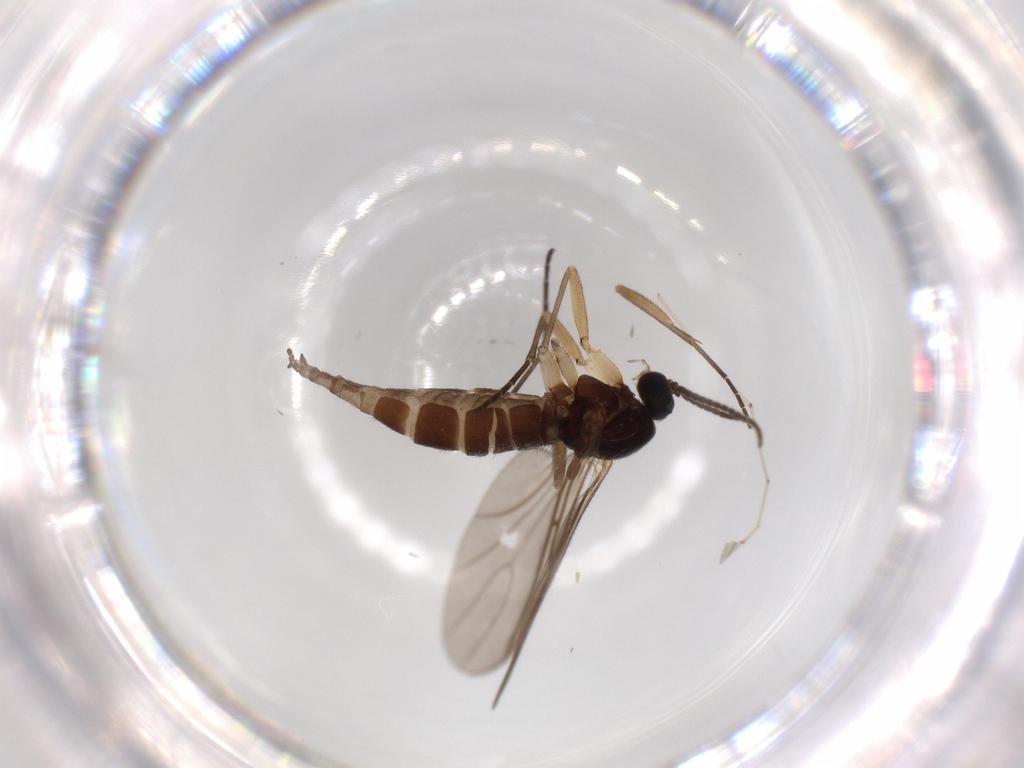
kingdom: Animalia
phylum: Arthropoda
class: Insecta
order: Diptera
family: Sciaridae
